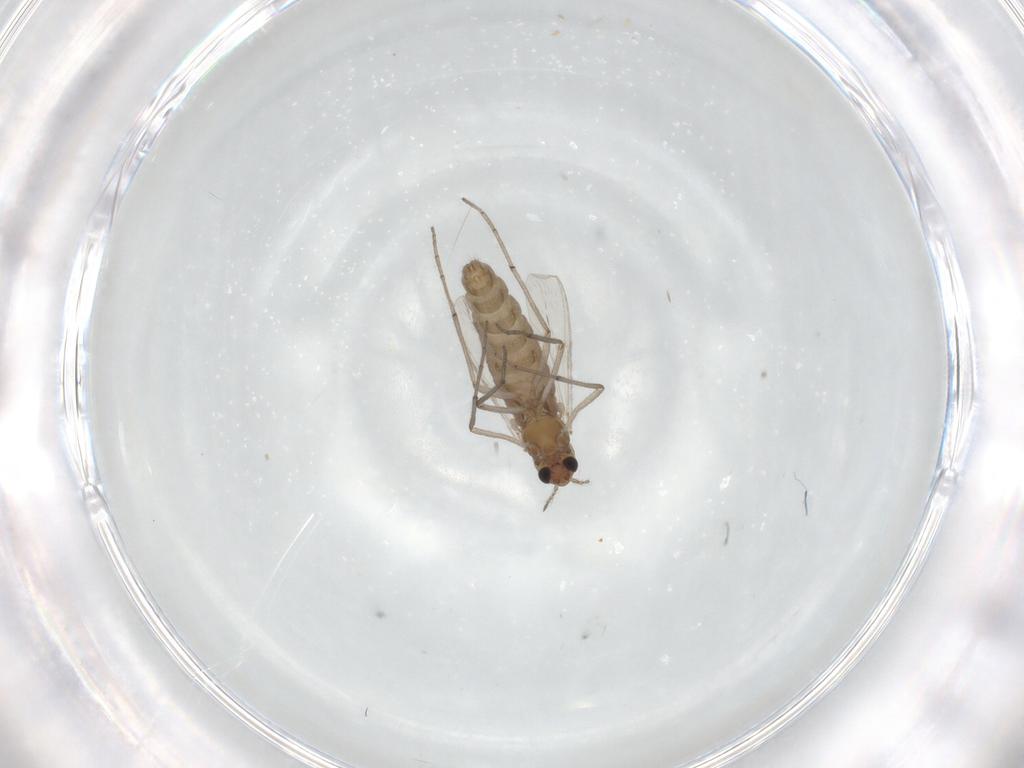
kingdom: Animalia
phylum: Arthropoda
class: Insecta
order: Diptera
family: Chironomidae
